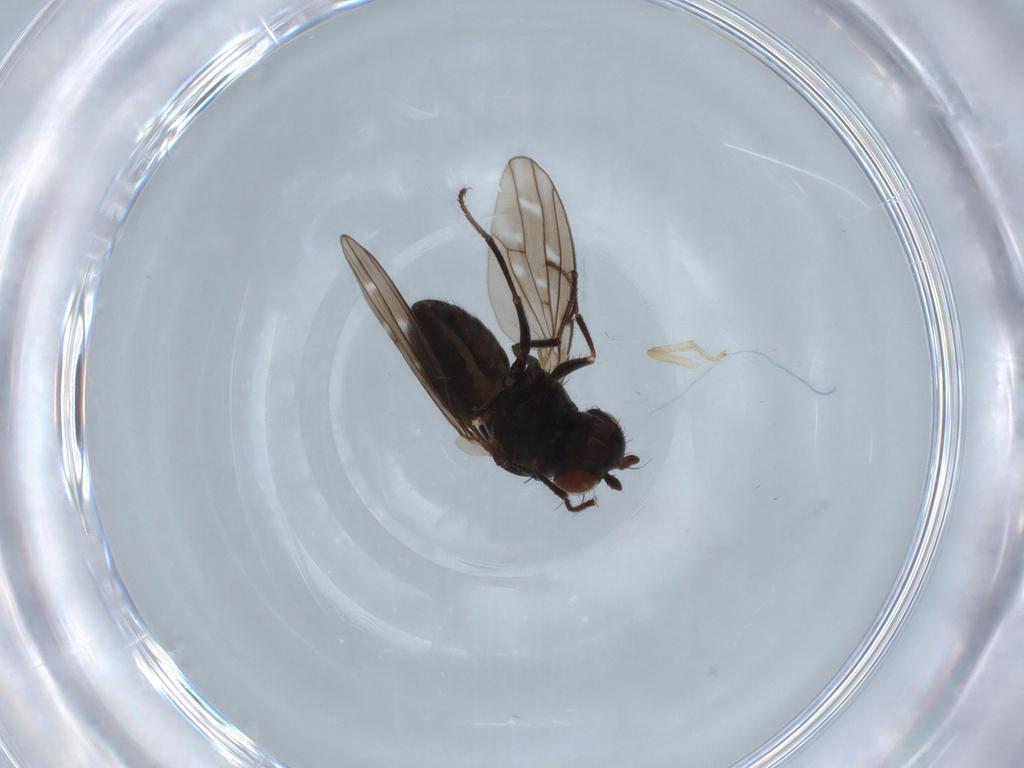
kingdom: Animalia
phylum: Arthropoda
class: Insecta
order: Diptera
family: Ephydridae
